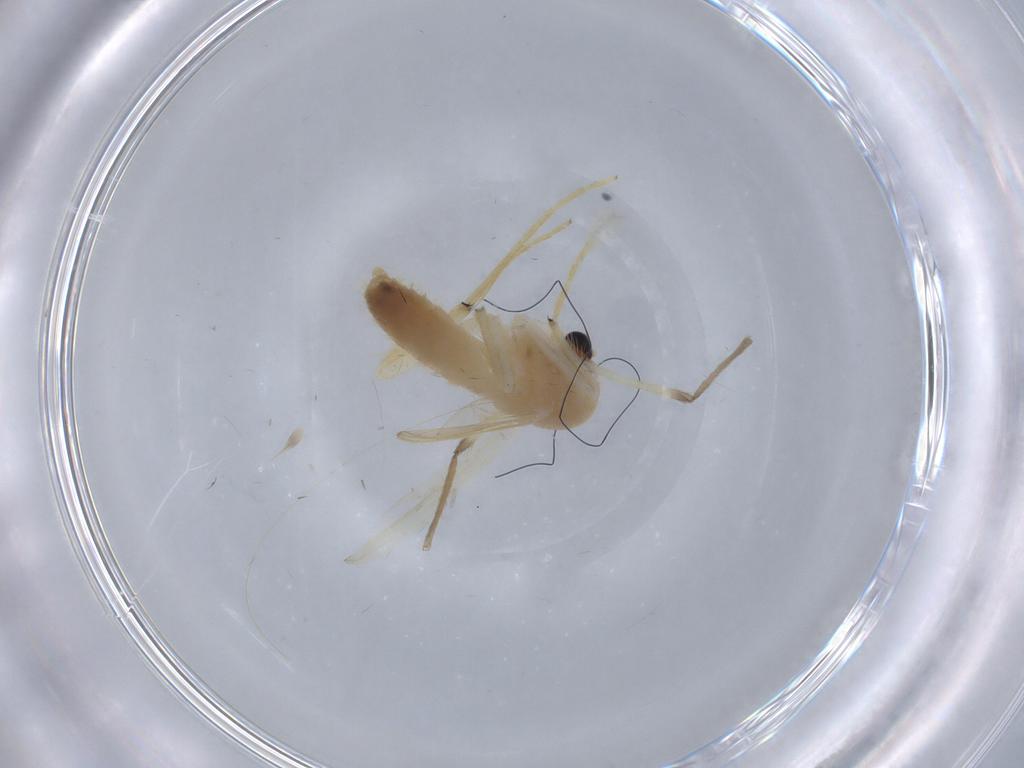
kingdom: Animalia
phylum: Arthropoda
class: Insecta
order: Diptera
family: Chironomidae
